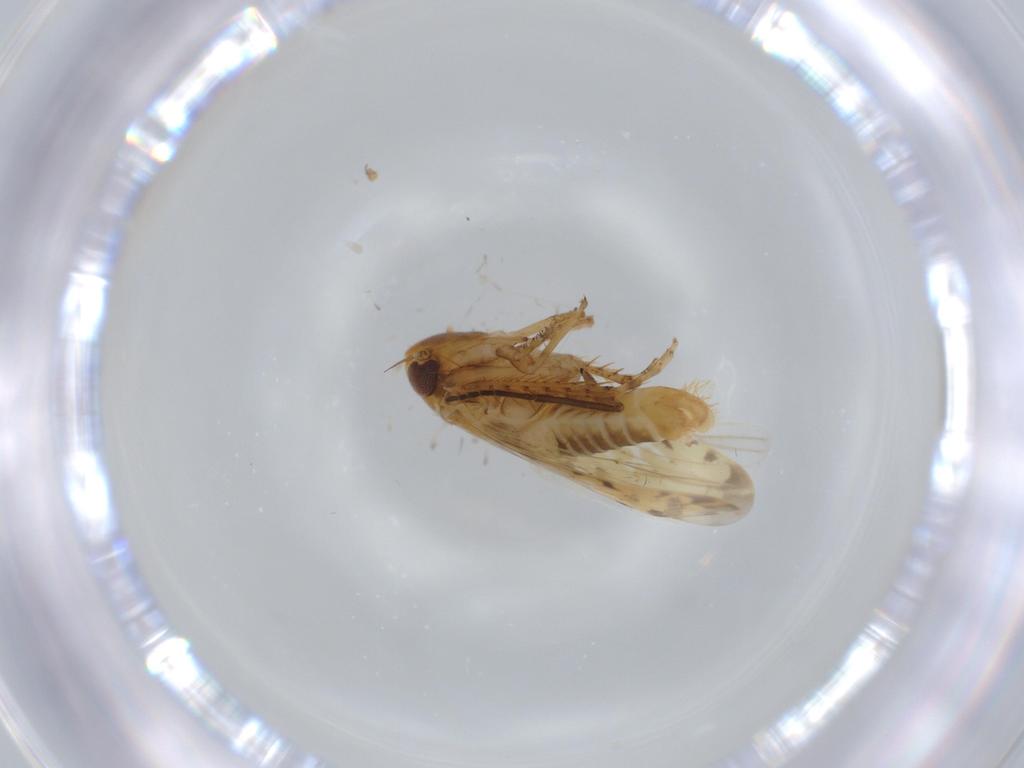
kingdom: Animalia
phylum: Arthropoda
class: Insecta
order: Hemiptera
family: Cicadellidae
